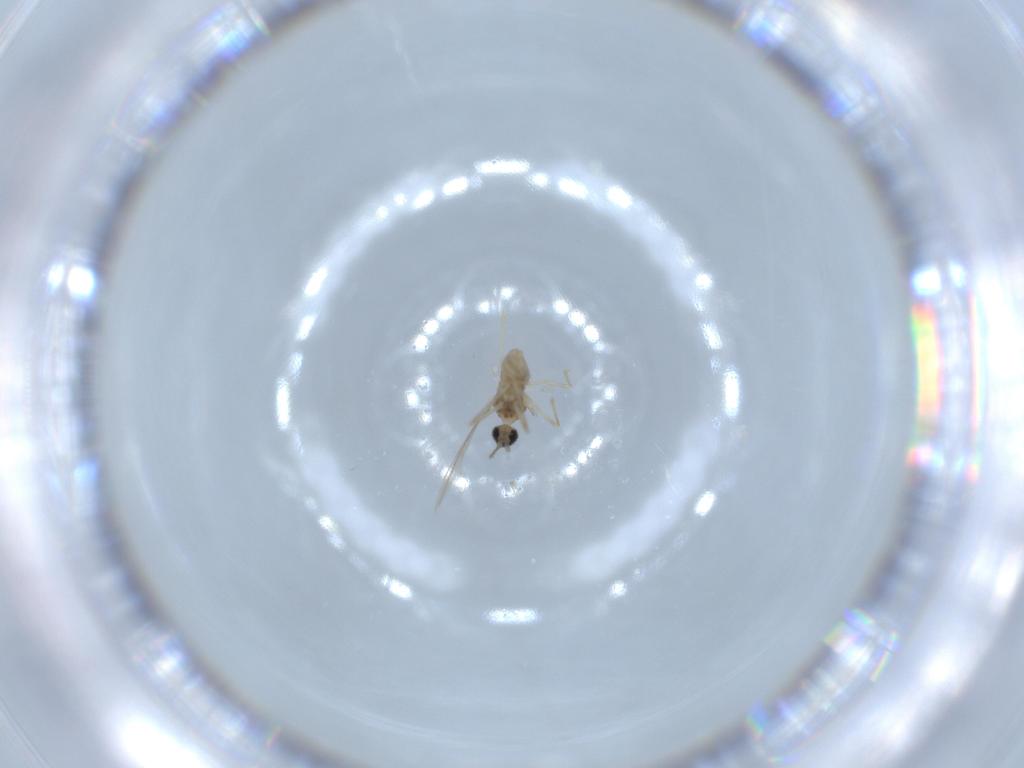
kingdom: Animalia
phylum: Arthropoda
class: Insecta
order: Diptera
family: Cecidomyiidae
